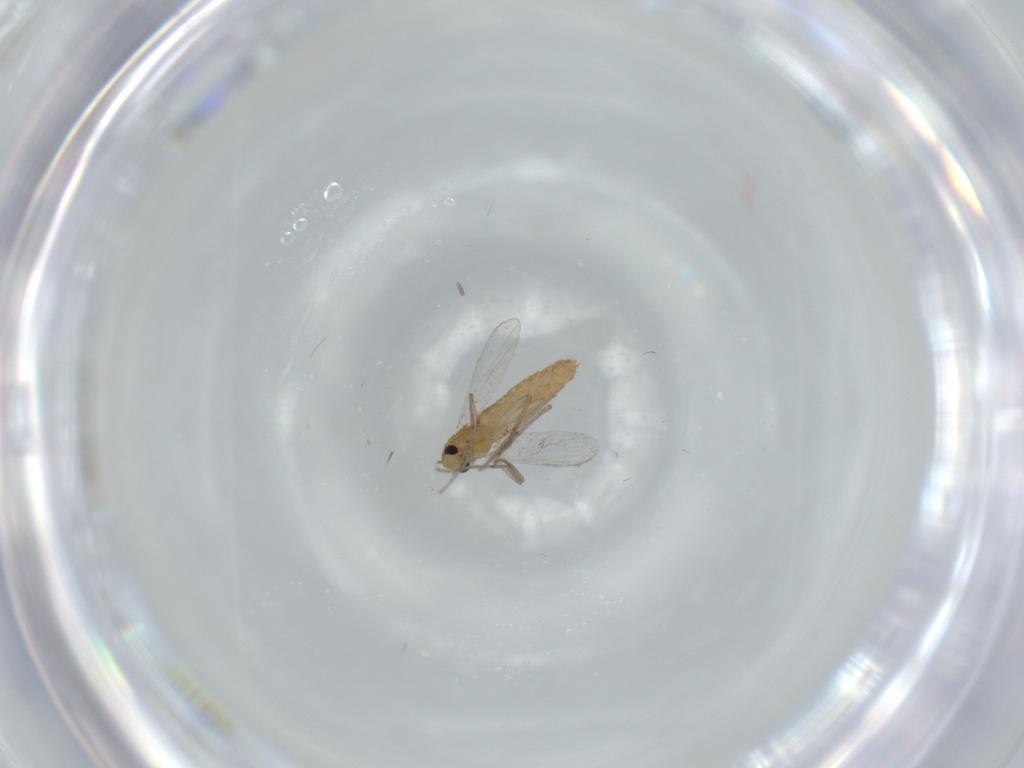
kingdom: Animalia
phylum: Arthropoda
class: Insecta
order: Diptera
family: Chironomidae
